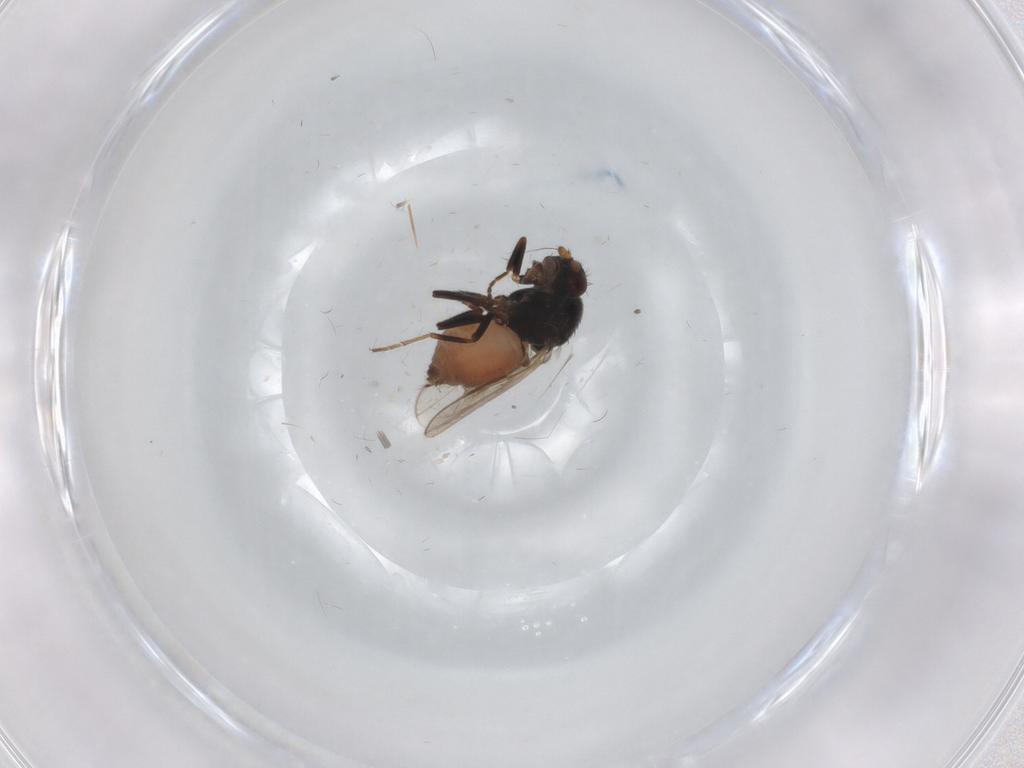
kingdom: Animalia
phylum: Arthropoda
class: Insecta
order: Diptera
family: Sphaeroceridae
